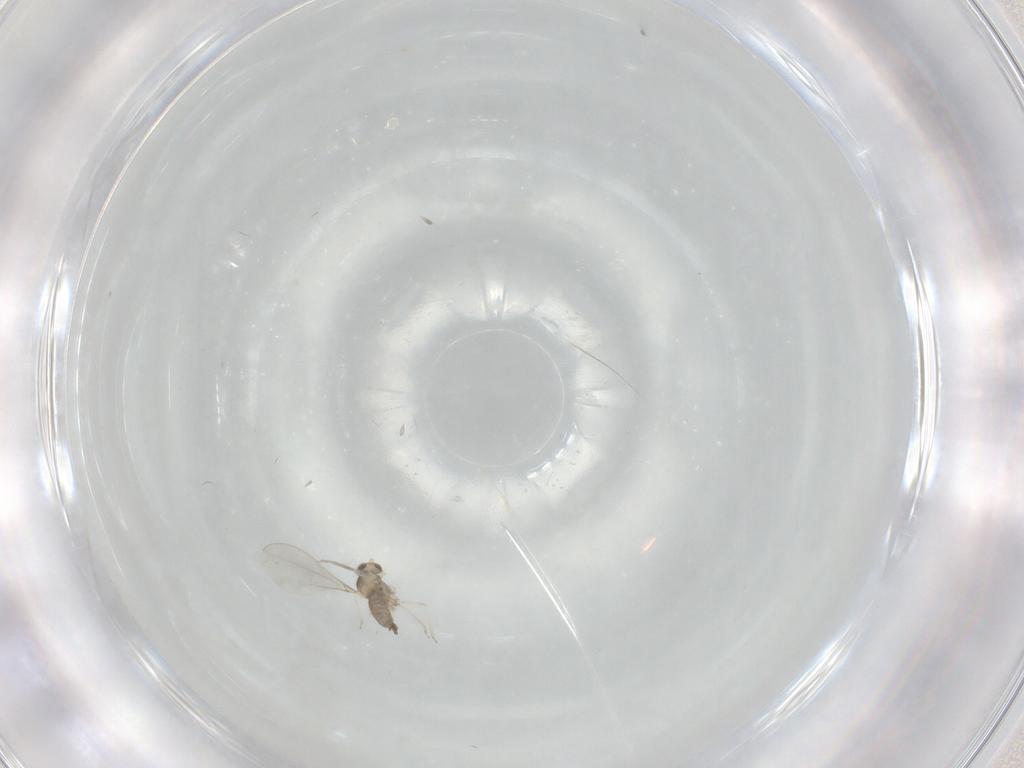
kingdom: Animalia
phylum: Arthropoda
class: Insecta
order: Diptera
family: Cecidomyiidae
